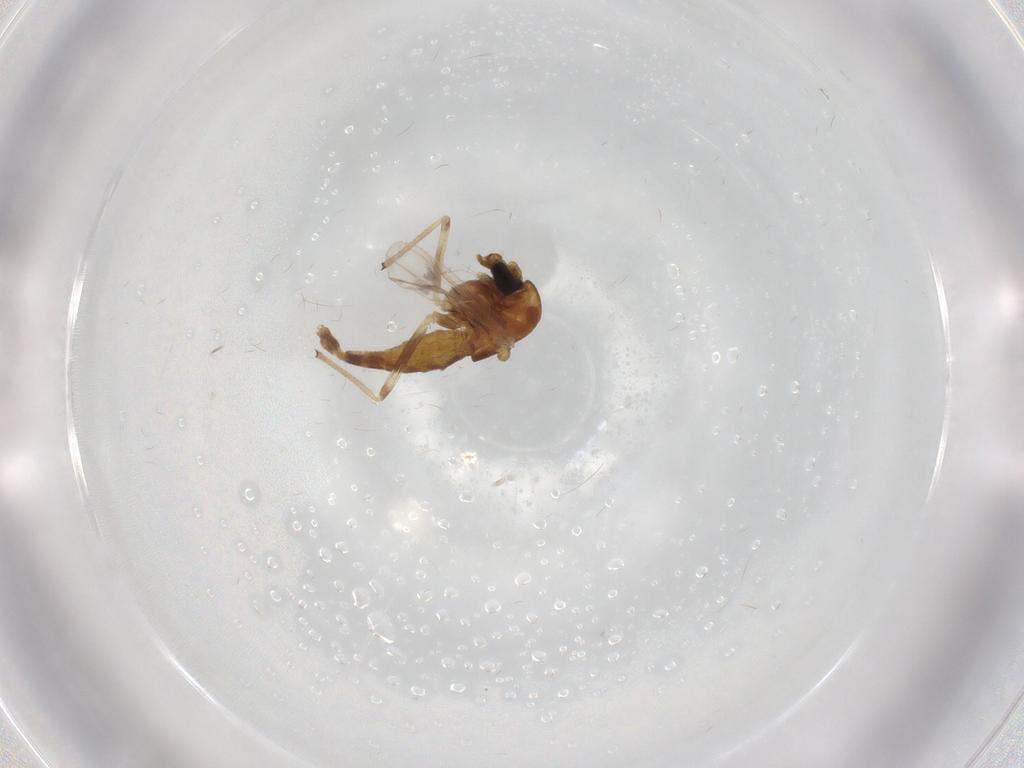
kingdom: Animalia
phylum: Arthropoda
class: Insecta
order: Diptera
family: Chironomidae
